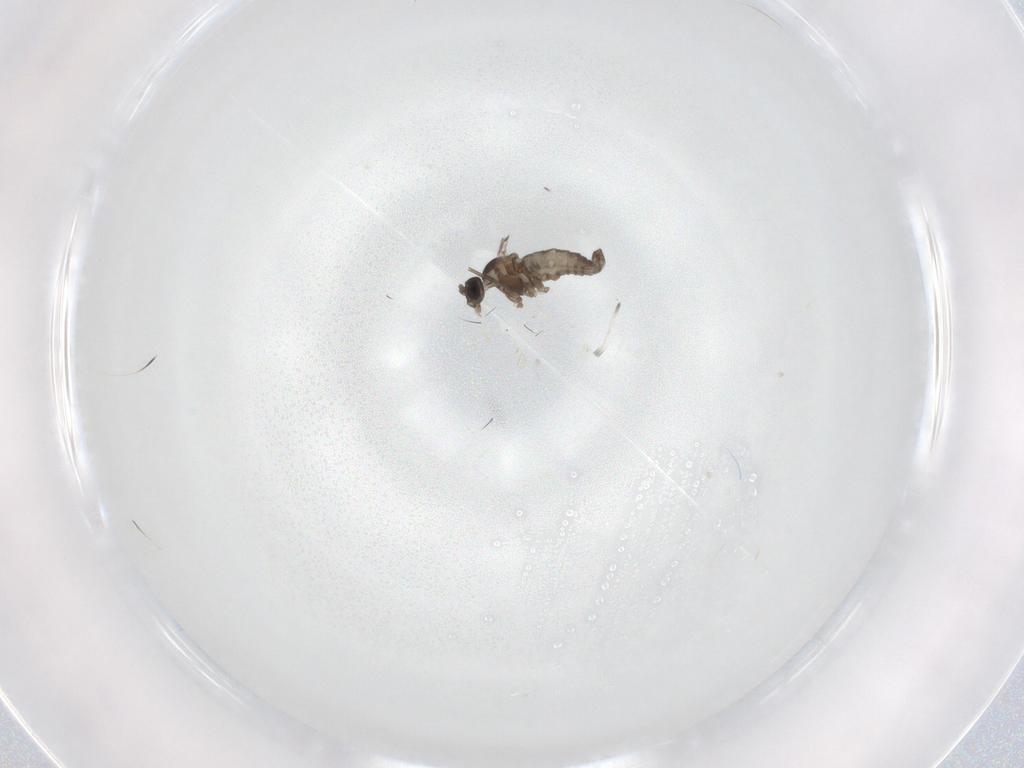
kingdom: Animalia
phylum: Arthropoda
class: Insecta
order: Diptera
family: Cecidomyiidae
